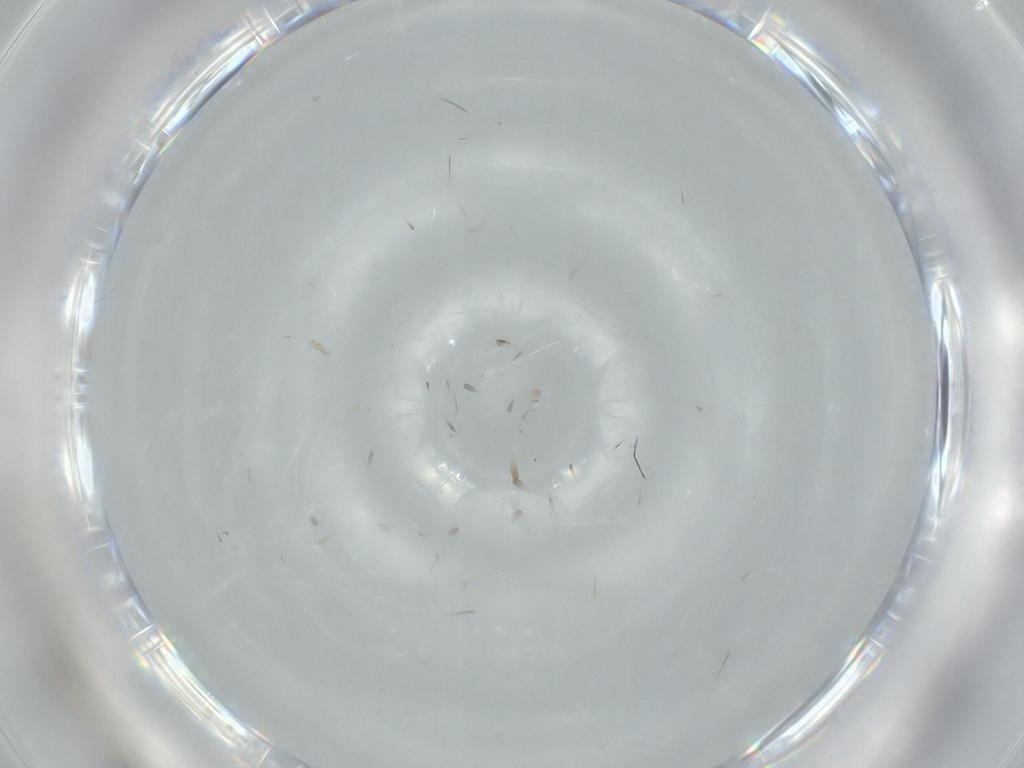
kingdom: Animalia
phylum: Arthropoda
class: Insecta
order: Diptera
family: Cecidomyiidae
